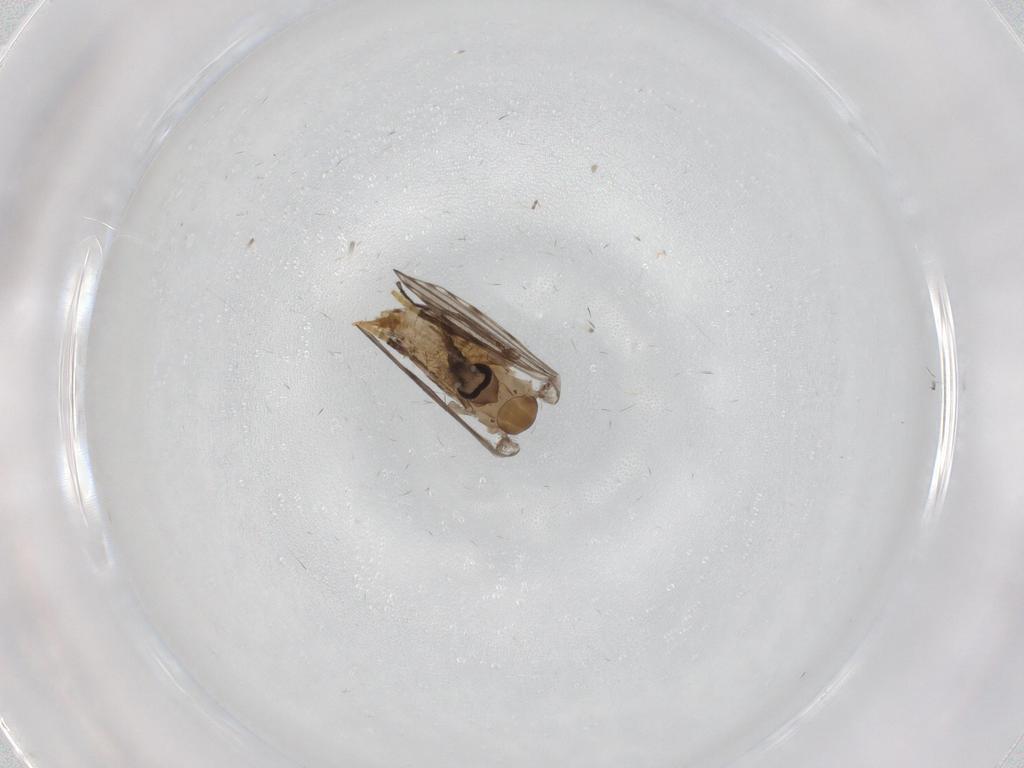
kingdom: Animalia
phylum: Arthropoda
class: Insecta
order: Diptera
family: Psychodidae
